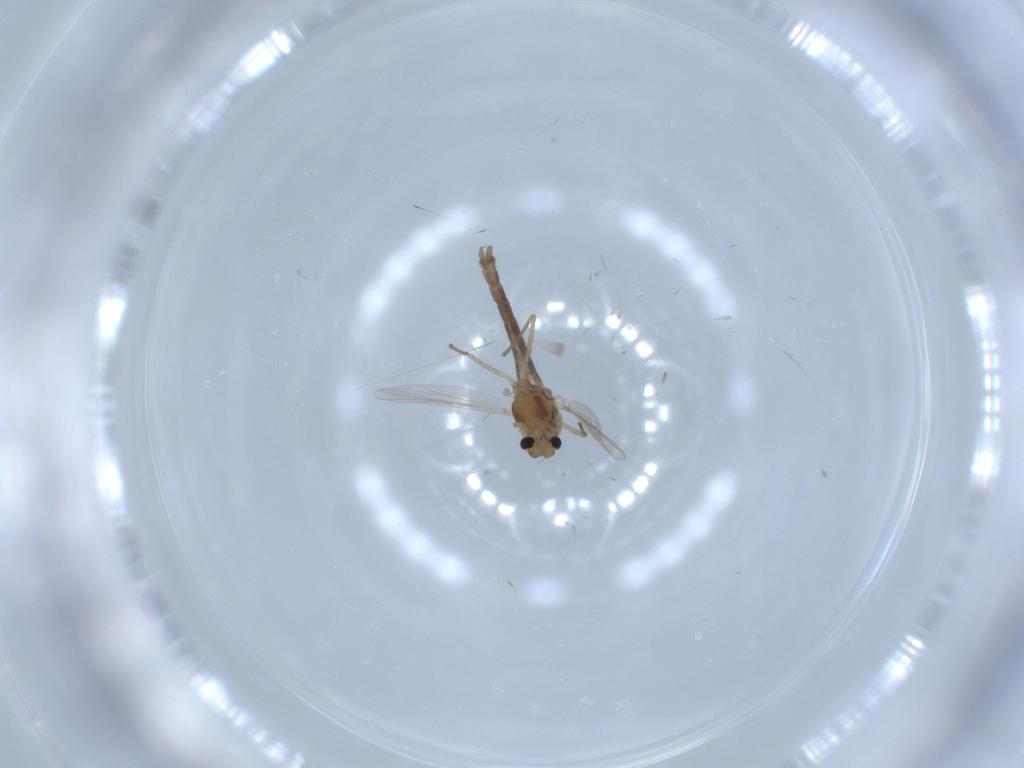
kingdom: Animalia
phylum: Arthropoda
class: Insecta
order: Diptera
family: Chironomidae
